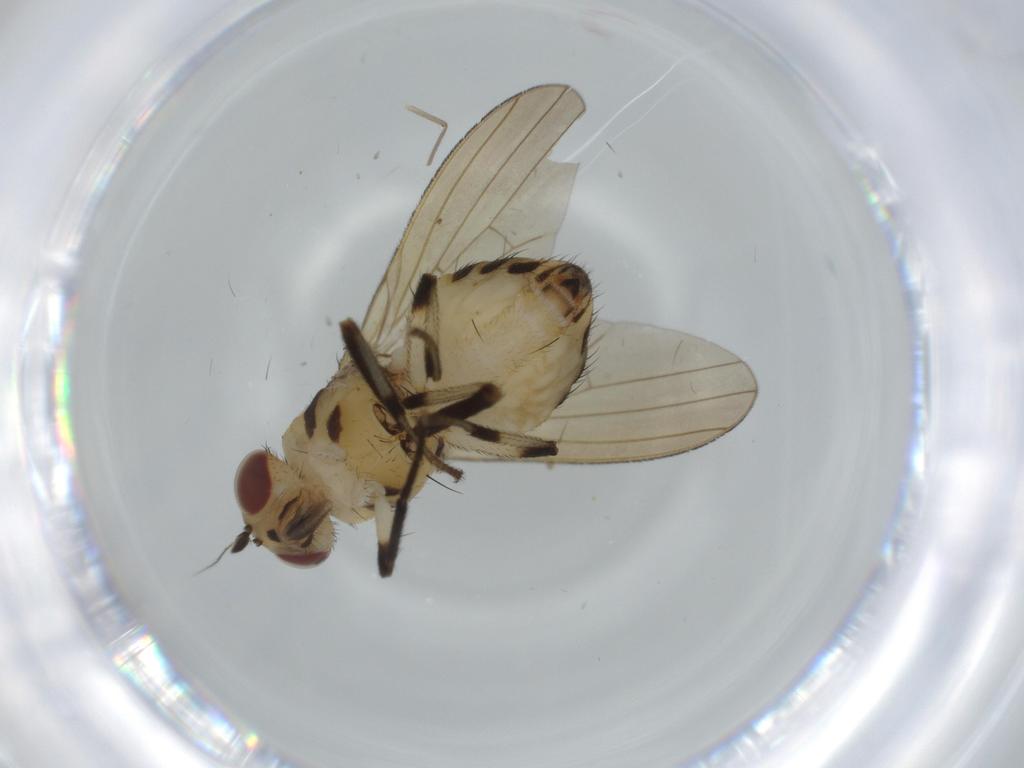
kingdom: Animalia
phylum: Arthropoda
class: Insecta
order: Diptera
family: Lauxaniidae
